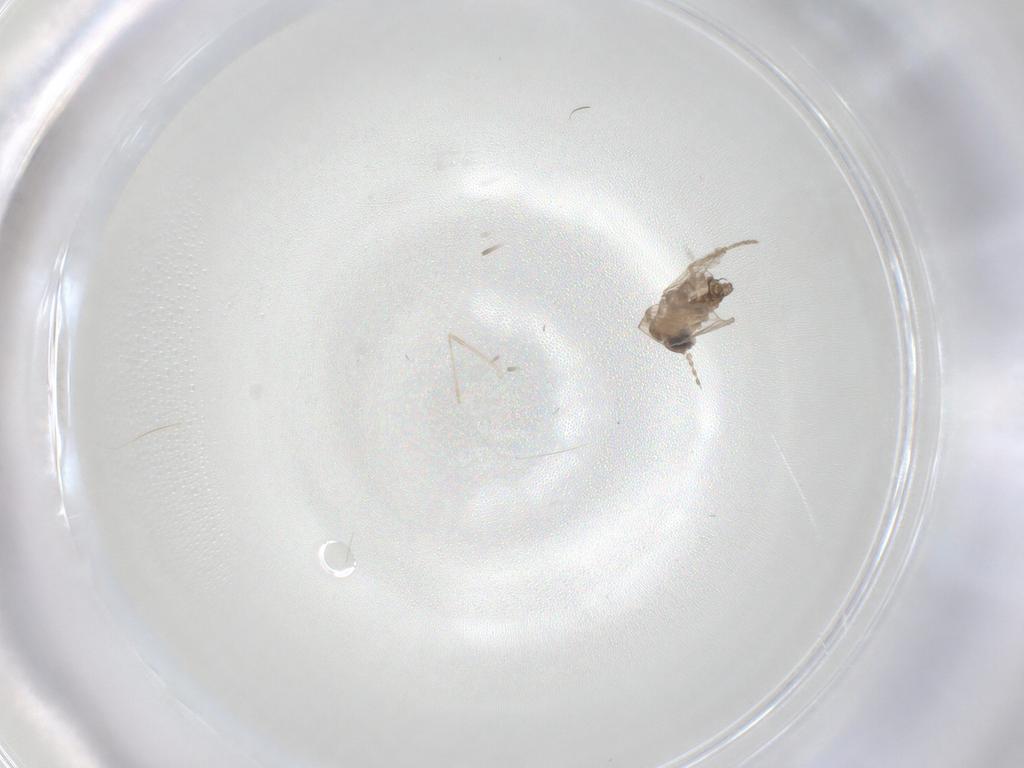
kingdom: Animalia
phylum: Arthropoda
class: Insecta
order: Diptera
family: Psychodidae
